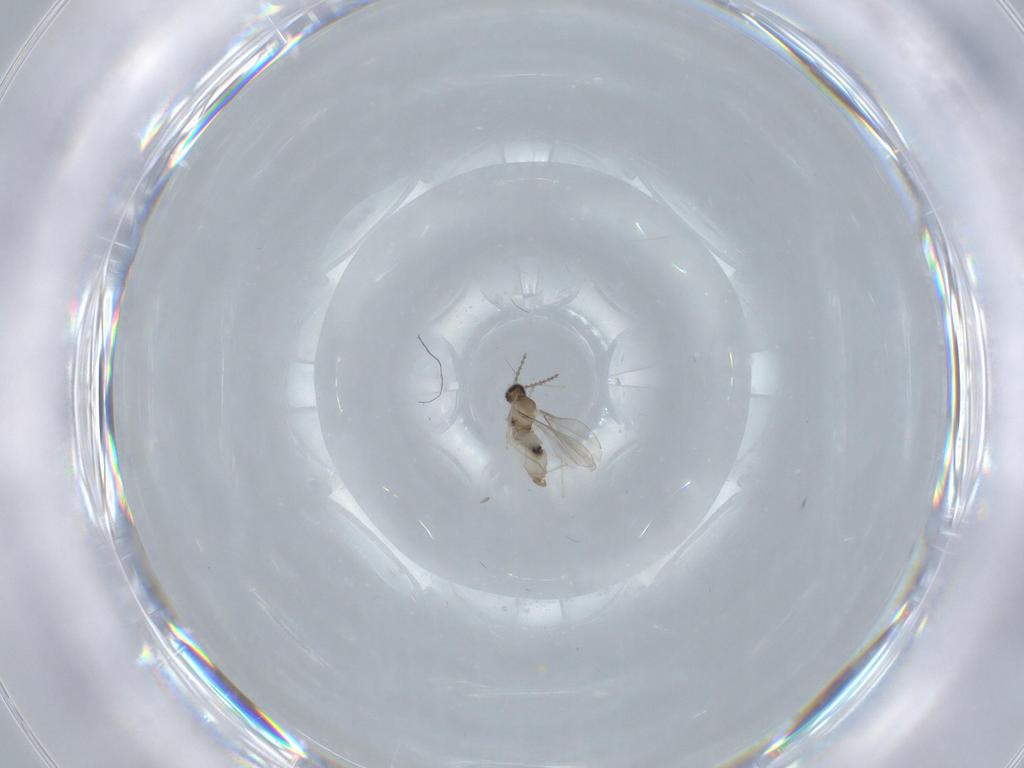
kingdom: Animalia
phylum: Arthropoda
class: Insecta
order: Diptera
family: Cecidomyiidae
